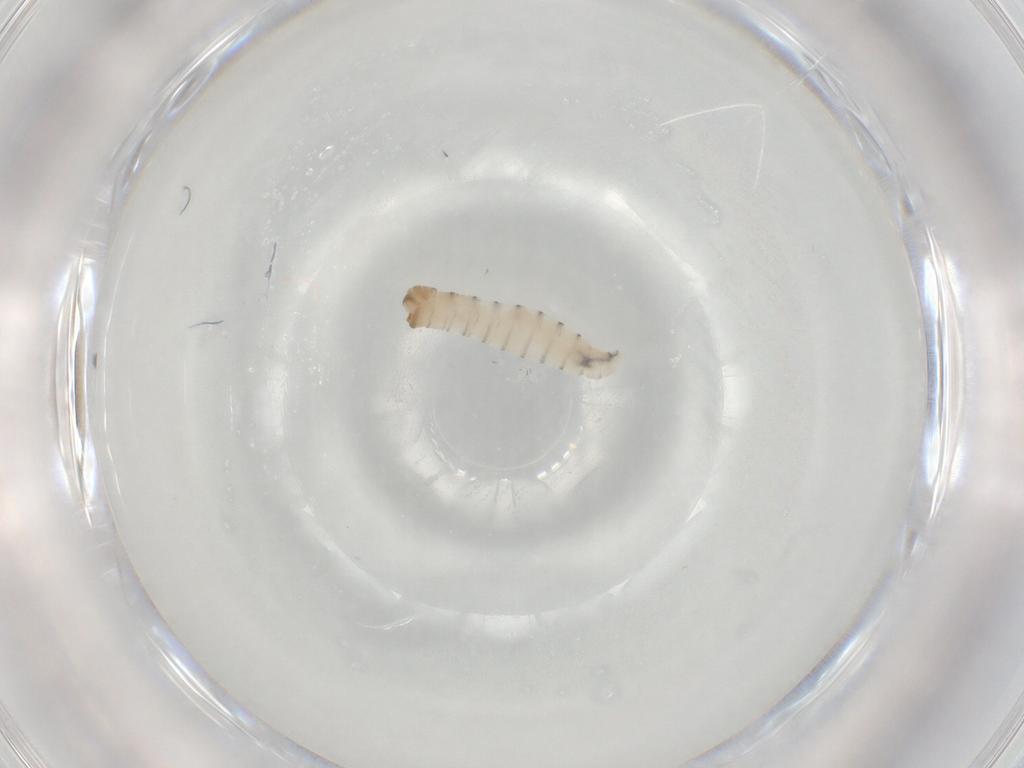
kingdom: Animalia
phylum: Arthropoda
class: Insecta
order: Diptera
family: Sarcophagidae
